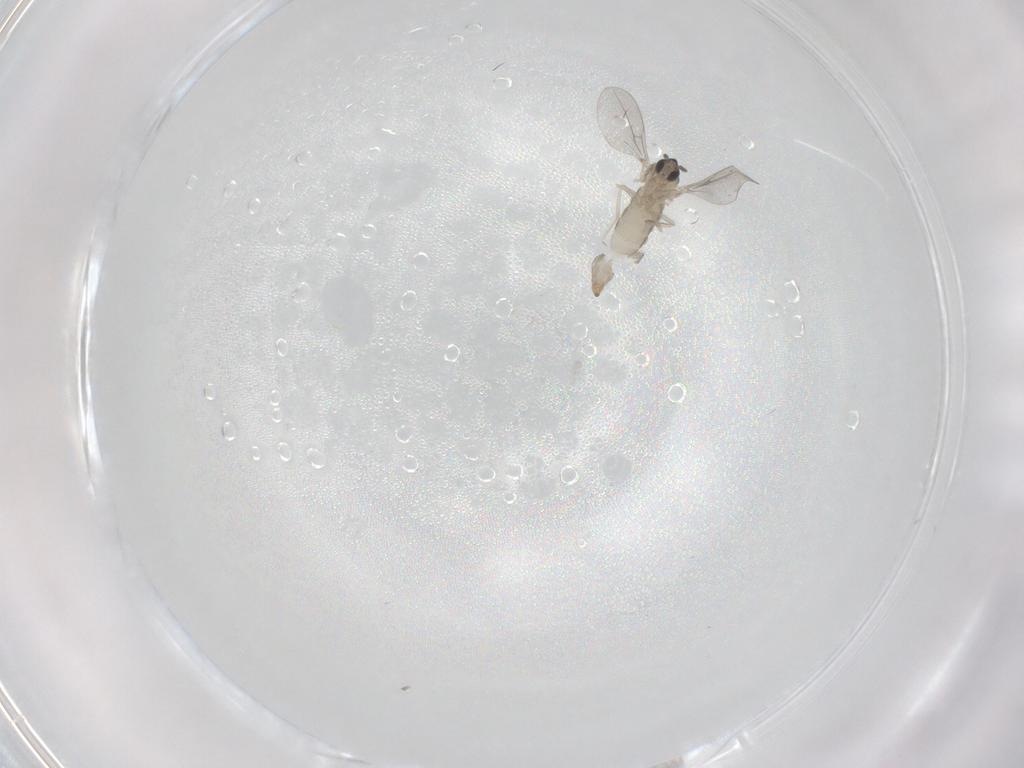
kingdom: Animalia
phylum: Arthropoda
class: Insecta
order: Diptera
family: Cecidomyiidae
